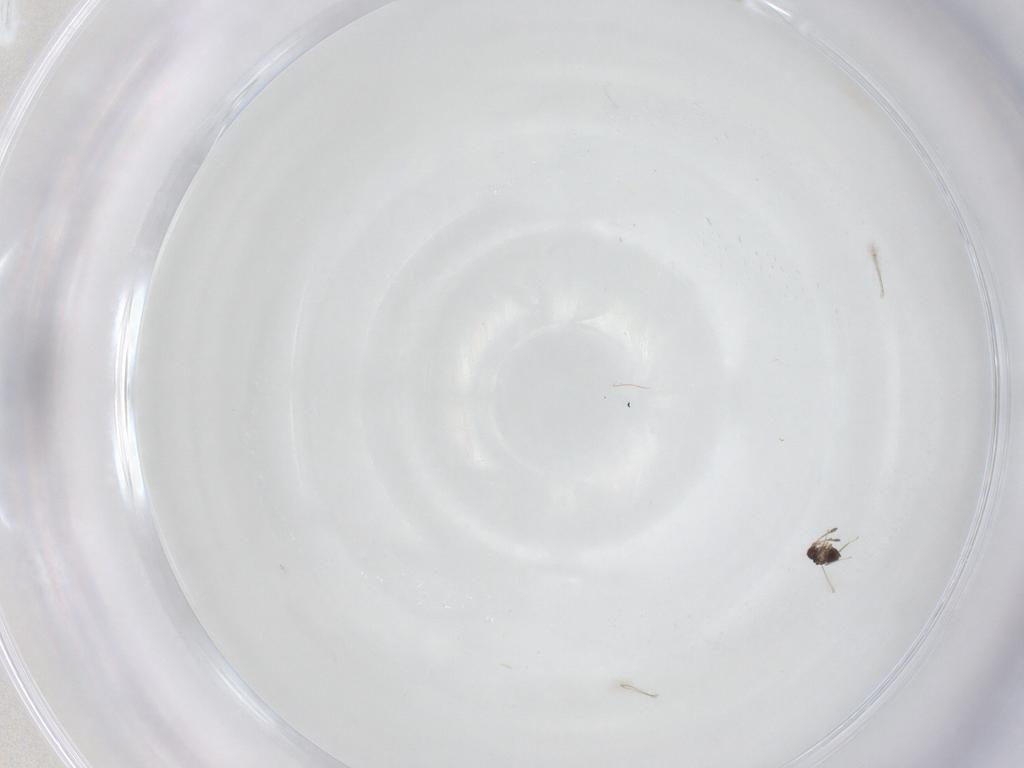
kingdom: Animalia
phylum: Arthropoda
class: Insecta
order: Hymenoptera
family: Mymaridae
